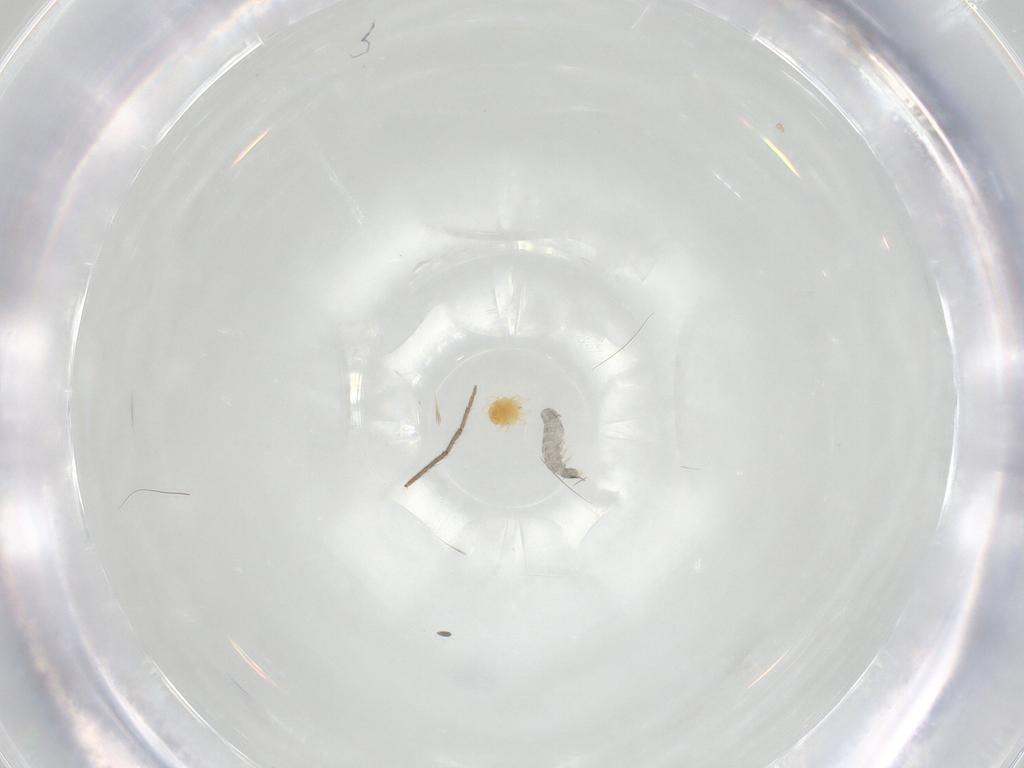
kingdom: Animalia
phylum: Arthropoda
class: Collembola
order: Entomobryomorpha
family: Isotomidae
